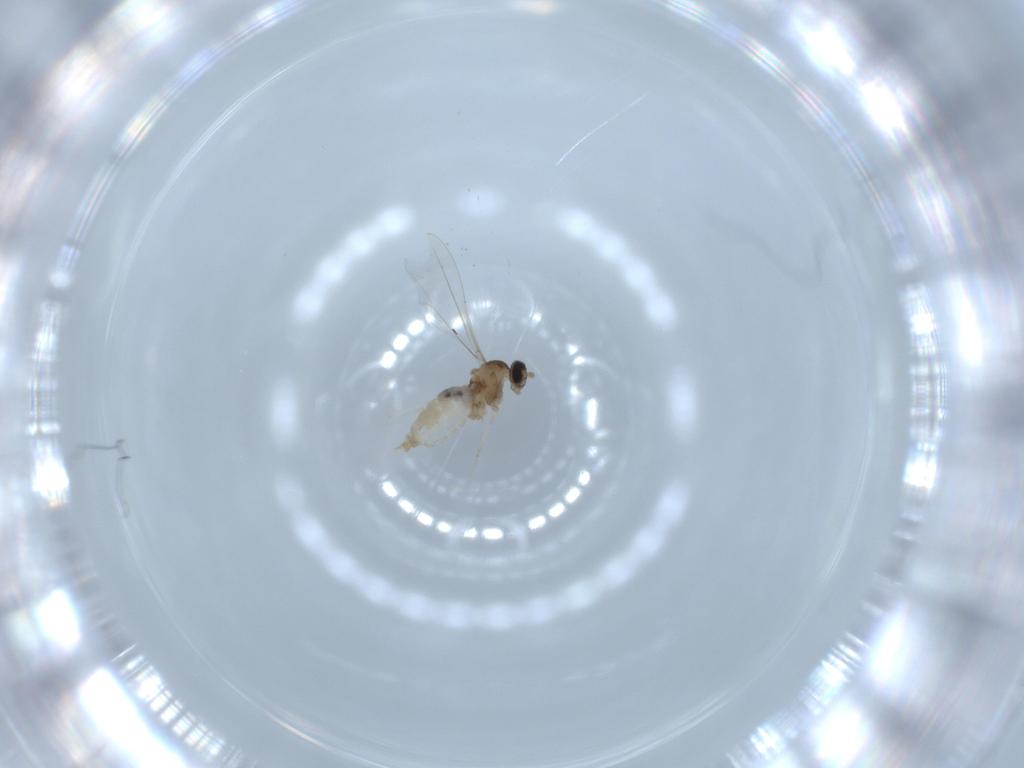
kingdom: Animalia
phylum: Arthropoda
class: Insecta
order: Diptera
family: Cecidomyiidae
